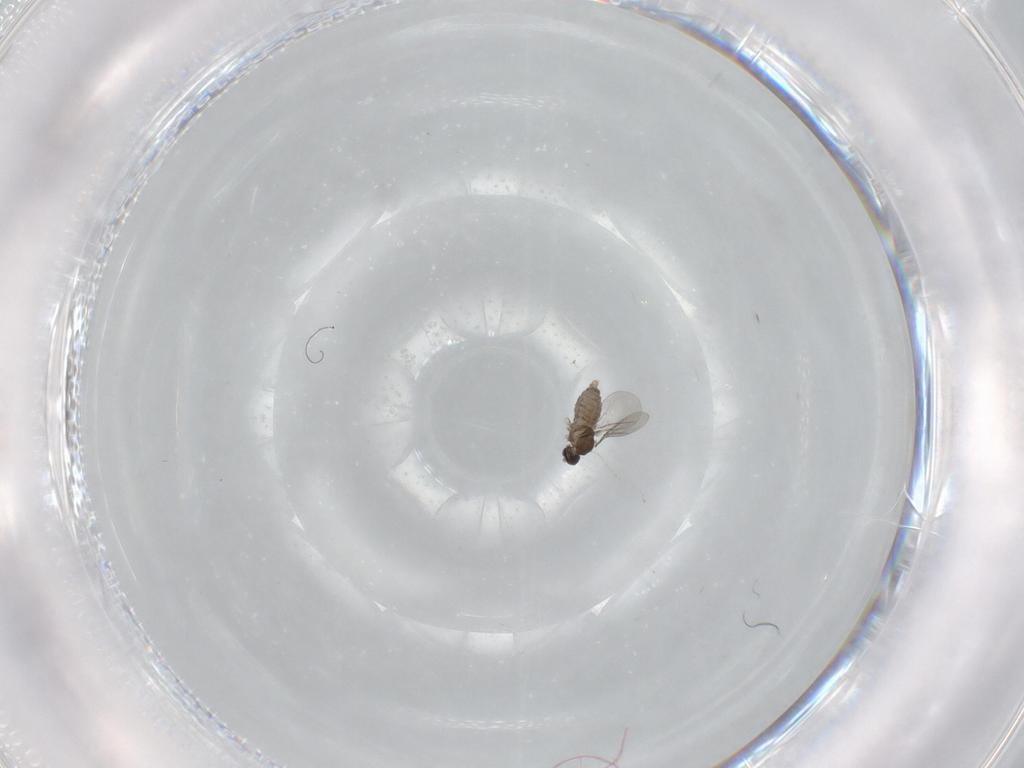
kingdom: Animalia
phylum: Arthropoda
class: Insecta
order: Diptera
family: Cecidomyiidae
